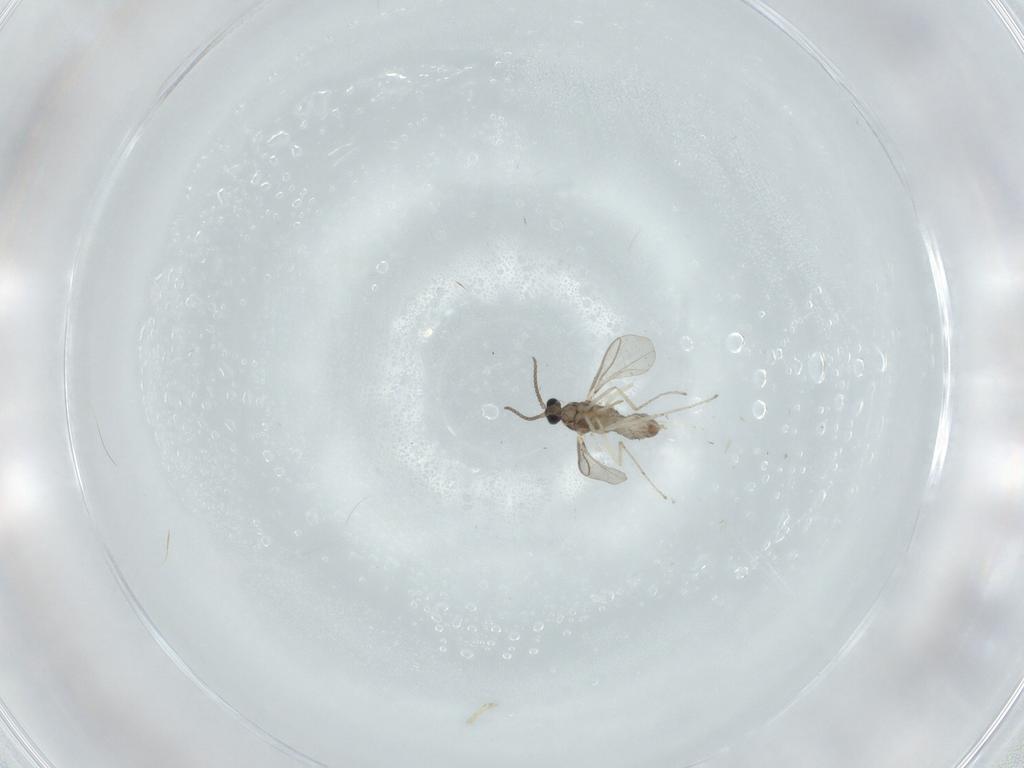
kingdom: Animalia
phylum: Arthropoda
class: Insecta
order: Diptera
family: Cecidomyiidae
